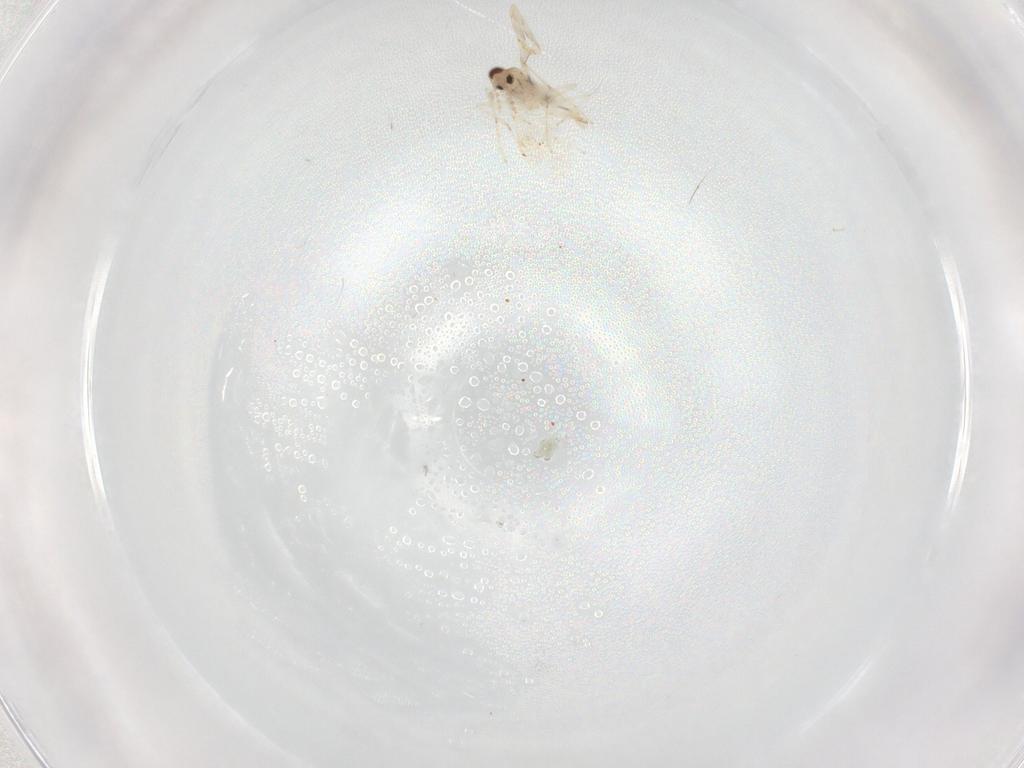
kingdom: Animalia
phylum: Arthropoda
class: Insecta
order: Diptera
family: Cecidomyiidae
